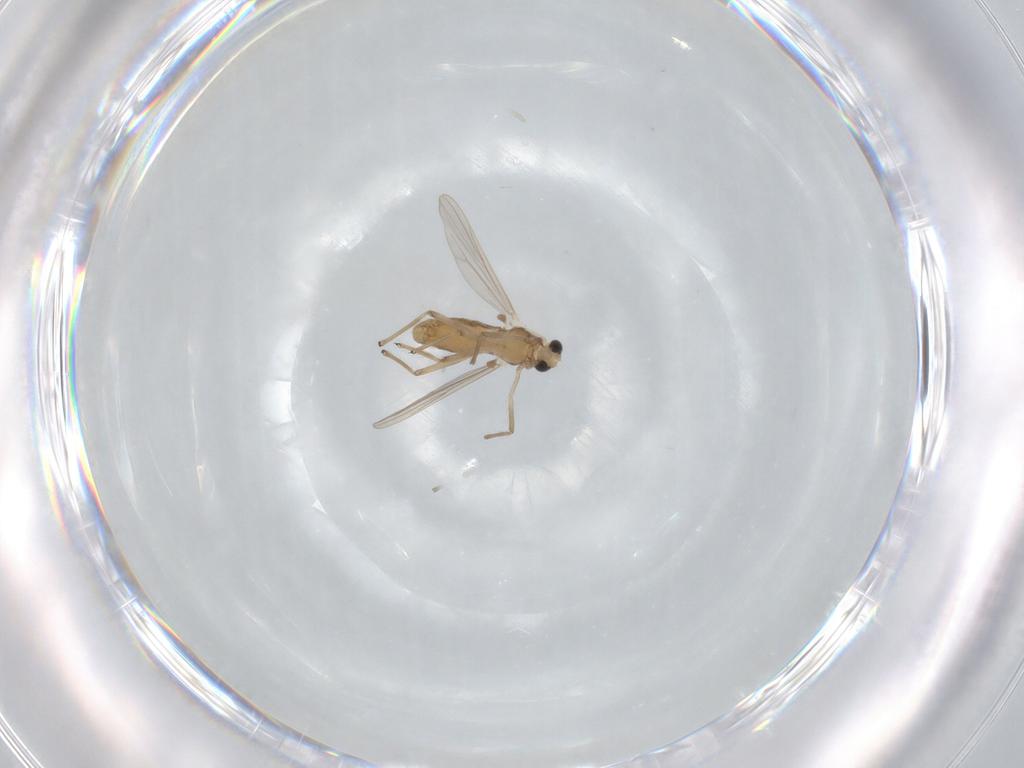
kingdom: Animalia
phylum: Arthropoda
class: Insecta
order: Diptera
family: Chironomidae
